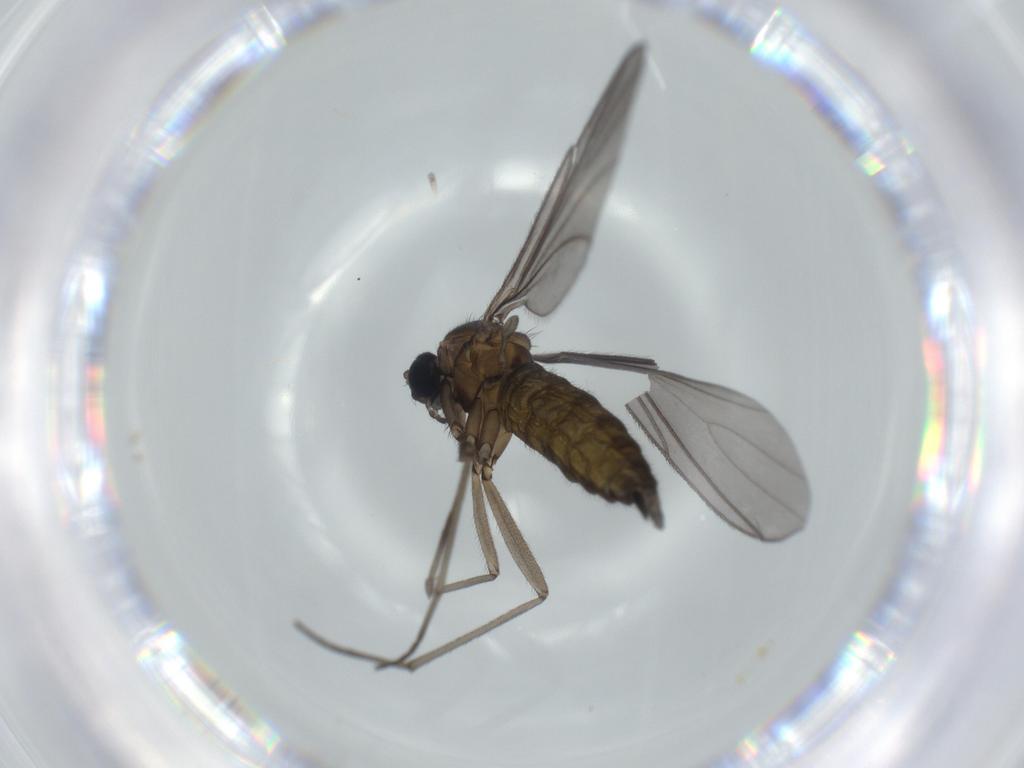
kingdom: Animalia
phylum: Arthropoda
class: Insecta
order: Diptera
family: Sciaridae
